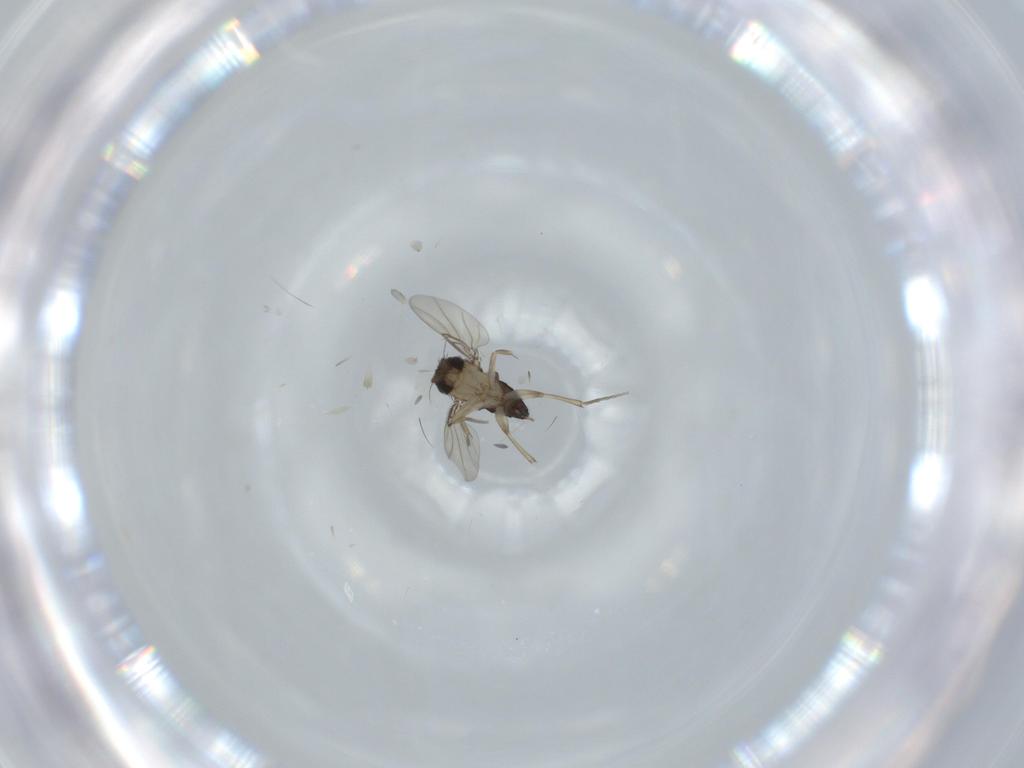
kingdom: Animalia
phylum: Arthropoda
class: Insecta
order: Diptera
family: Phoridae
